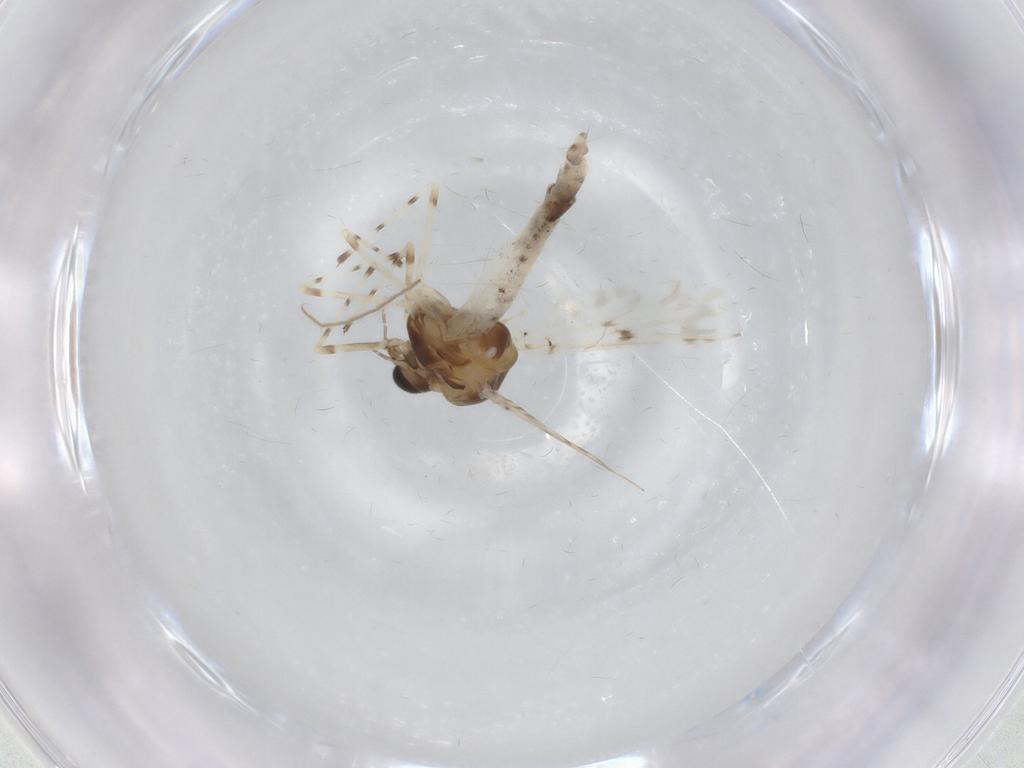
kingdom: Animalia
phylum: Arthropoda
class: Insecta
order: Diptera
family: Chironomidae
